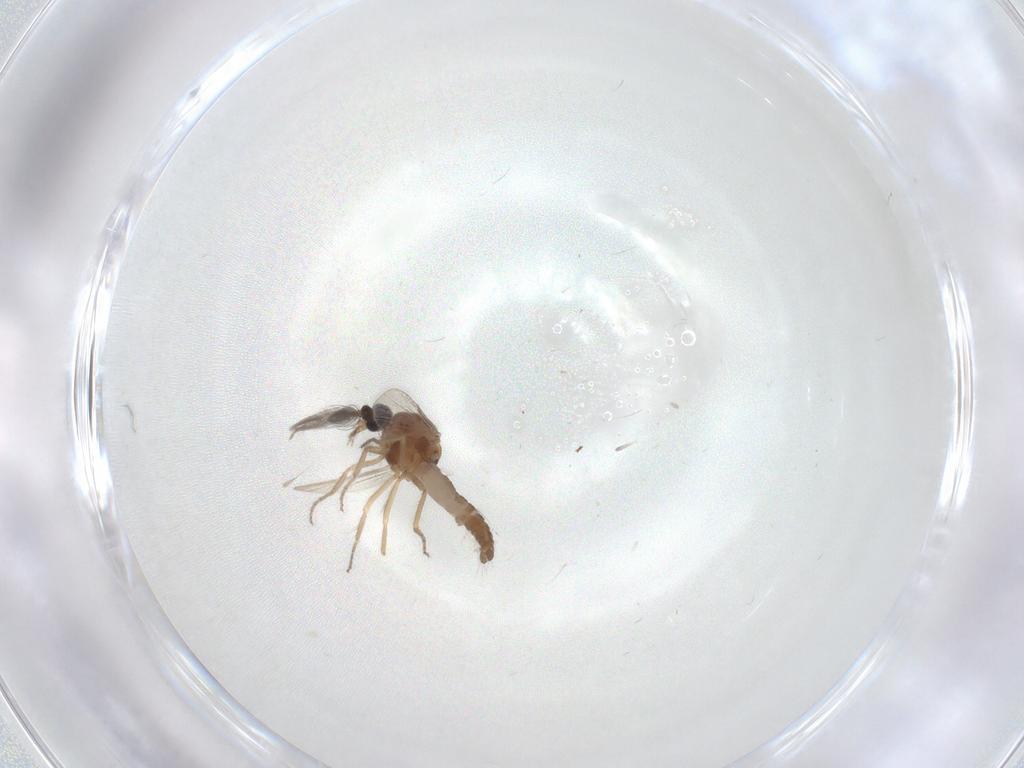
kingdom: Animalia
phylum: Arthropoda
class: Insecta
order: Diptera
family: Ceratopogonidae
